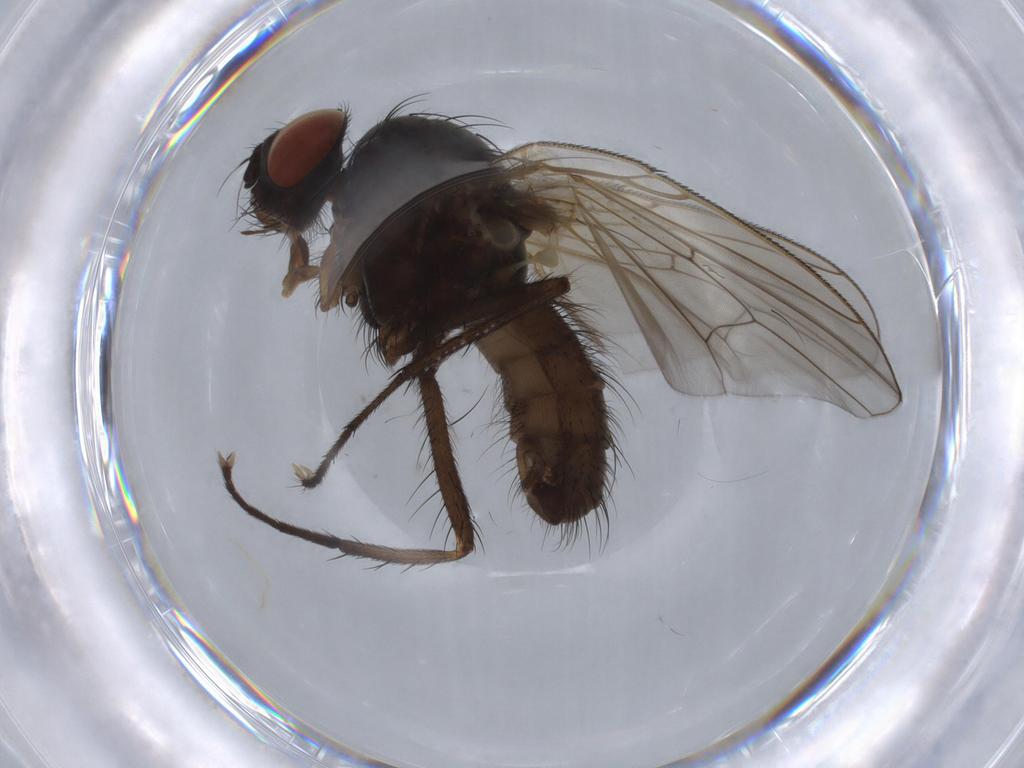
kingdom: Animalia
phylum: Arthropoda
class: Insecta
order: Diptera
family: Anthomyiidae
